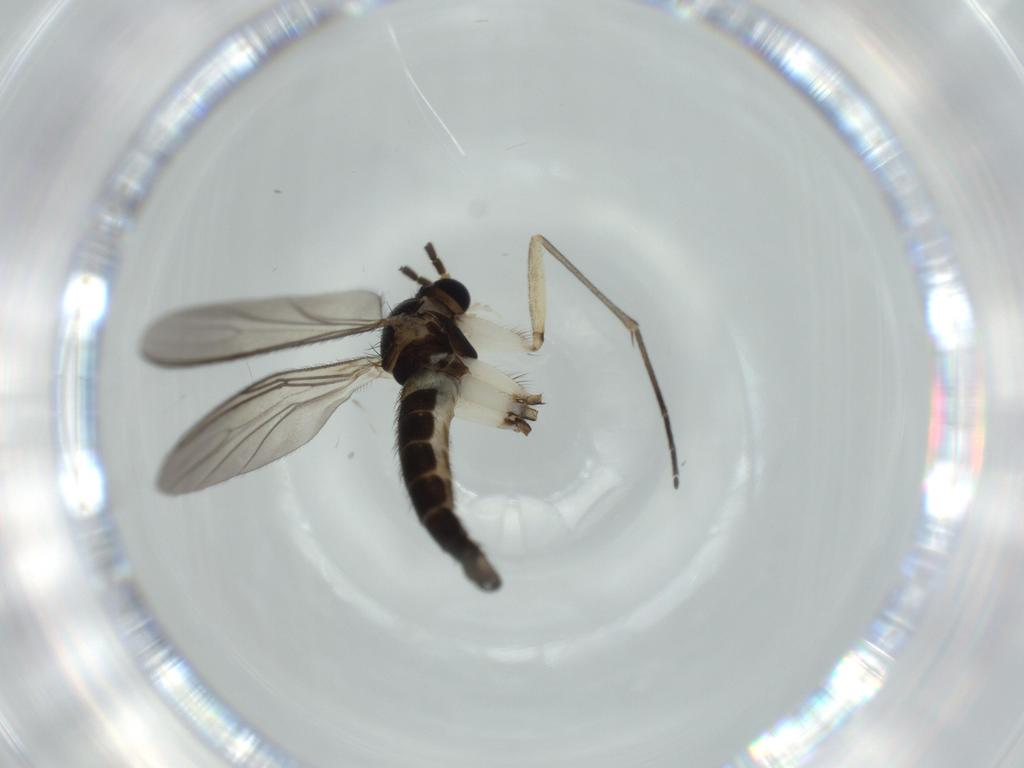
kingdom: Animalia
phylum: Arthropoda
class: Insecta
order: Diptera
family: Sciaridae
